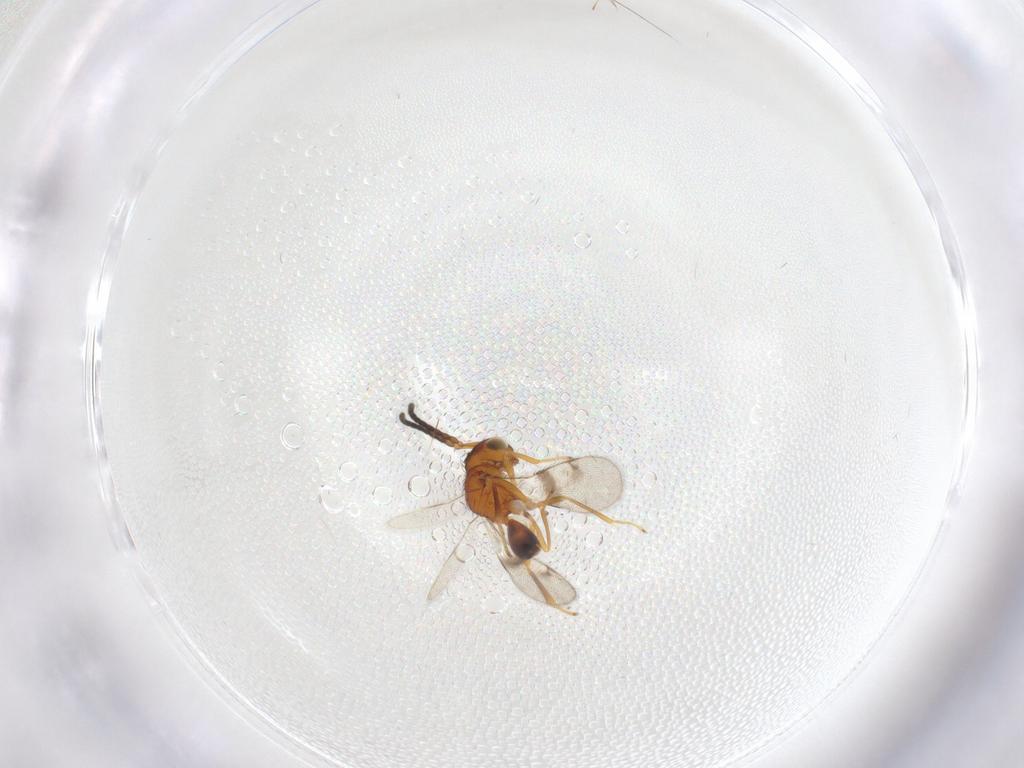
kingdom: Animalia
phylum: Arthropoda
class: Insecta
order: Hymenoptera
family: Diparidae
